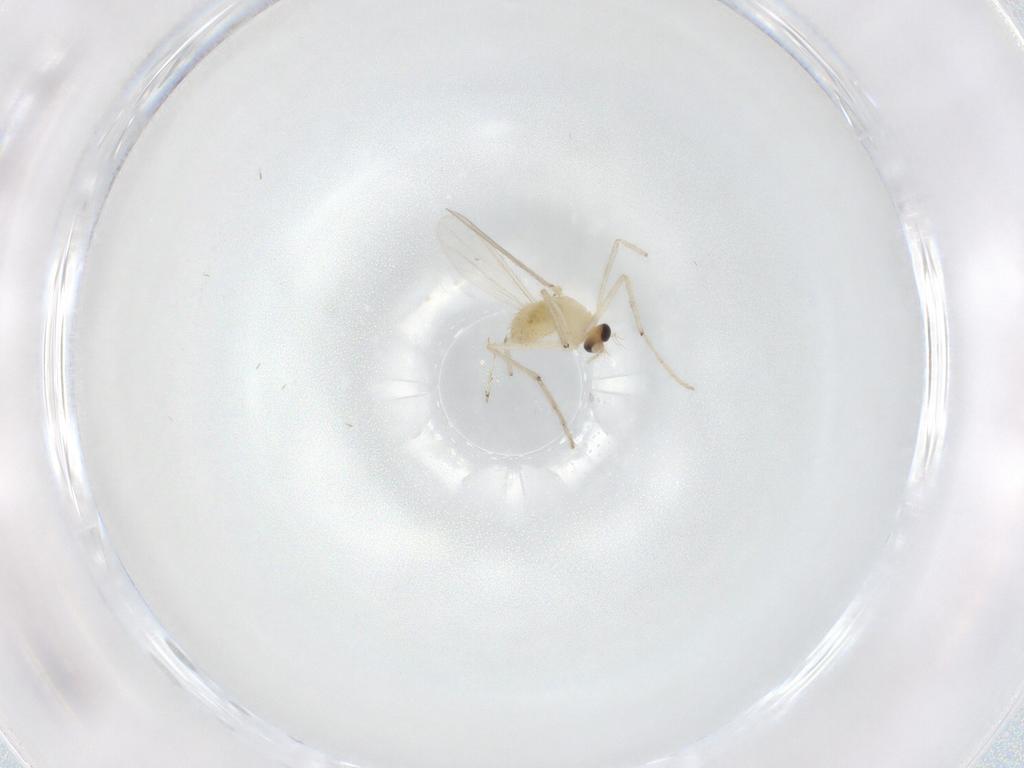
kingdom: Animalia
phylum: Arthropoda
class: Insecta
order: Diptera
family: Chironomidae
